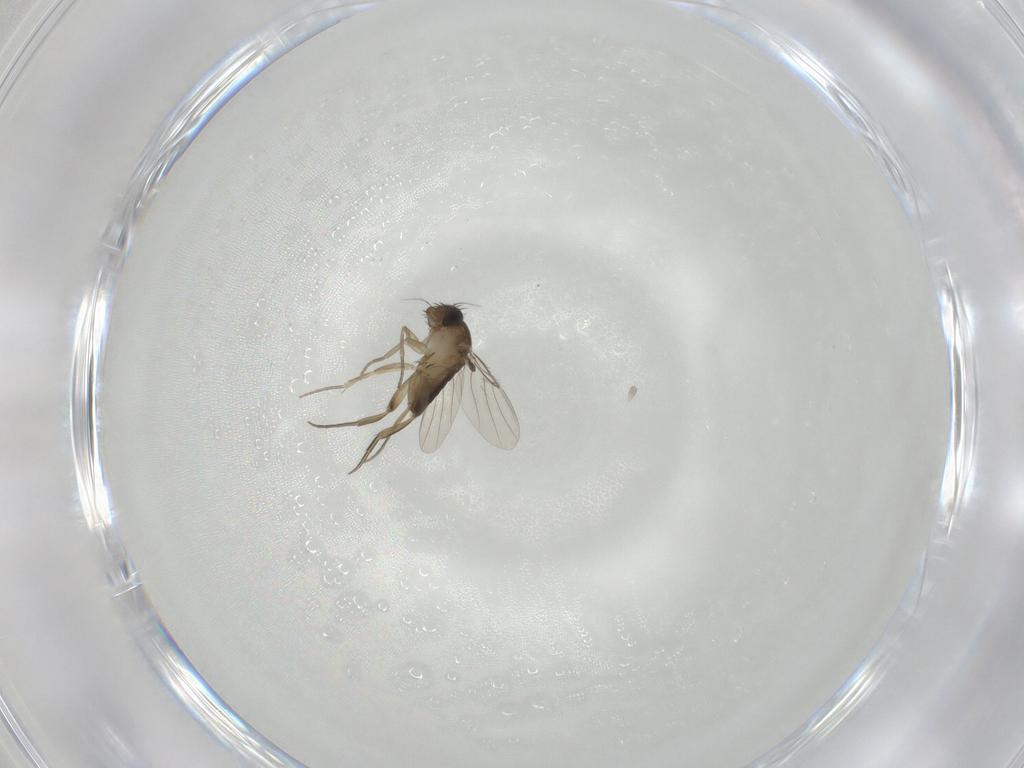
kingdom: Animalia
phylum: Arthropoda
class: Insecta
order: Diptera
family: Phoridae
